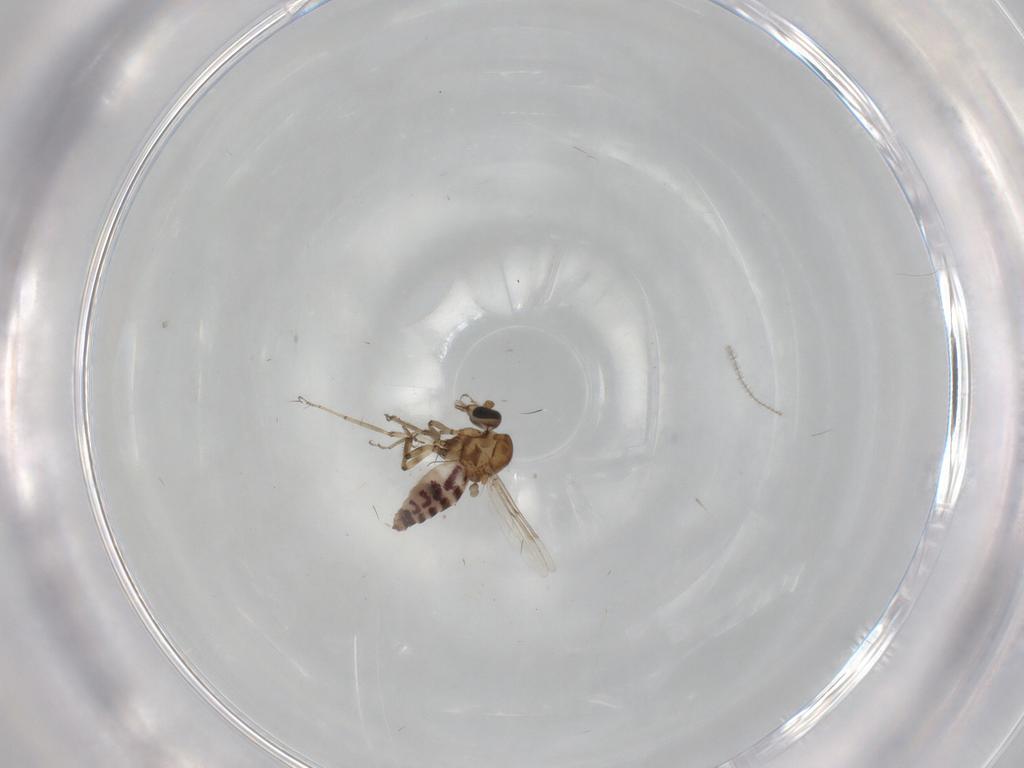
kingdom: Animalia
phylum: Arthropoda
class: Insecta
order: Diptera
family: Ceratopogonidae
